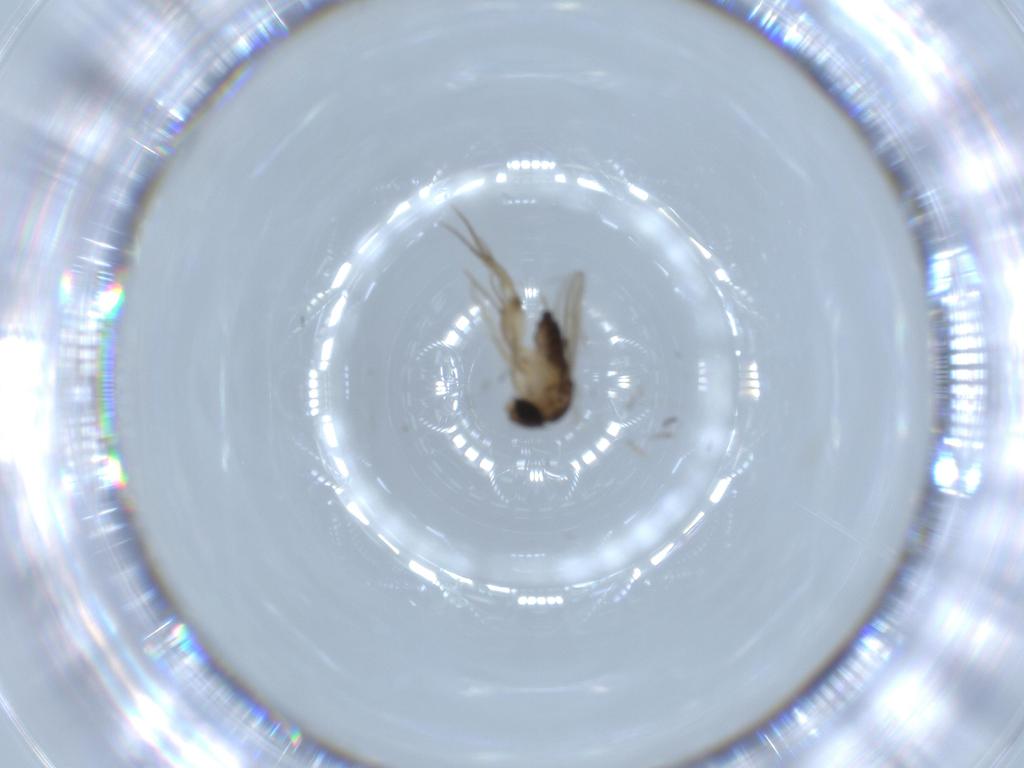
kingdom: Animalia
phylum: Arthropoda
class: Insecta
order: Diptera
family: Phoridae
